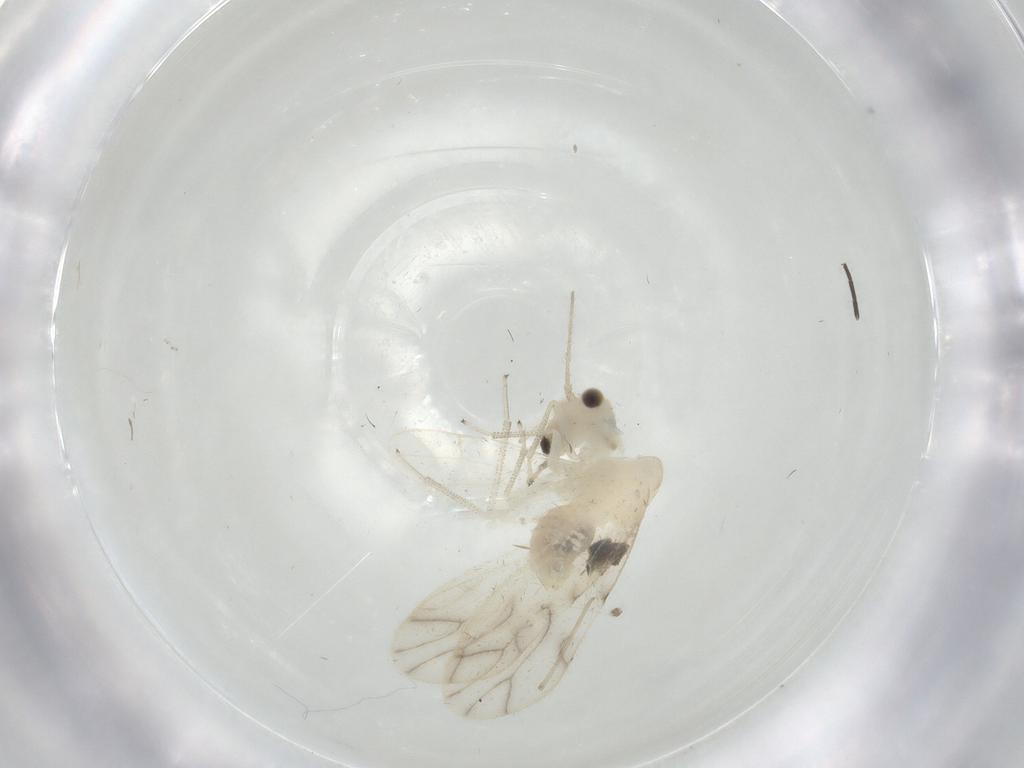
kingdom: Animalia
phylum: Arthropoda
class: Insecta
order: Psocodea
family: Caeciliusidae
